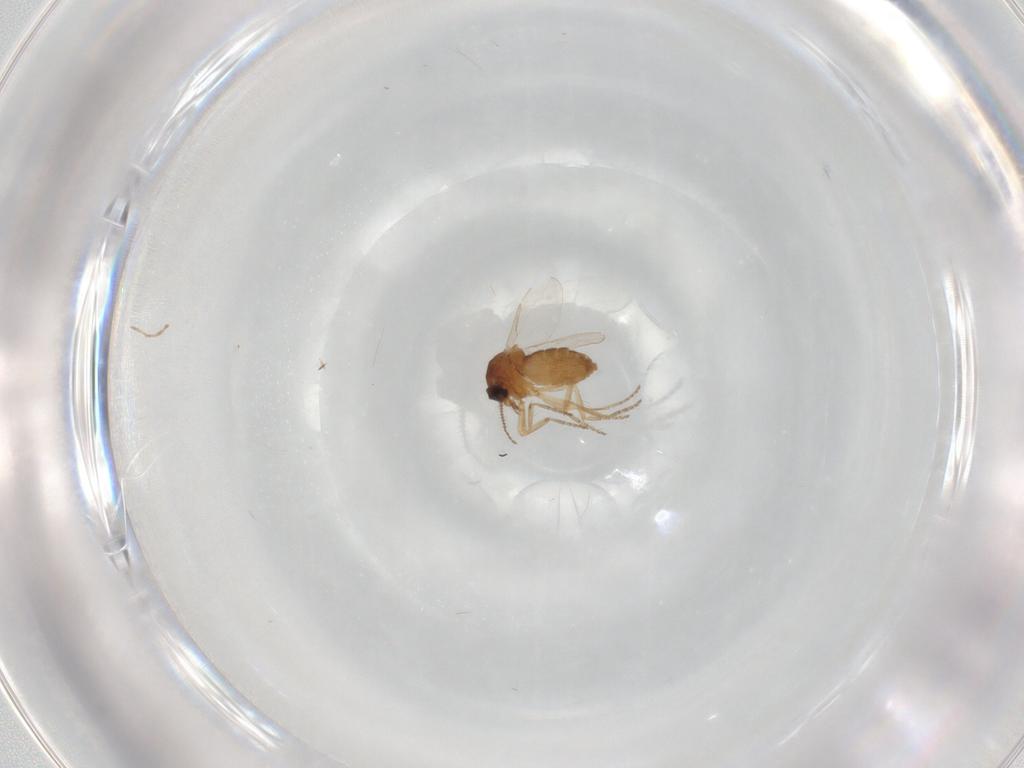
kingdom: Animalia
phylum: Arthropoda
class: Insecta
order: Diptera
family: Ceratopogonidae
